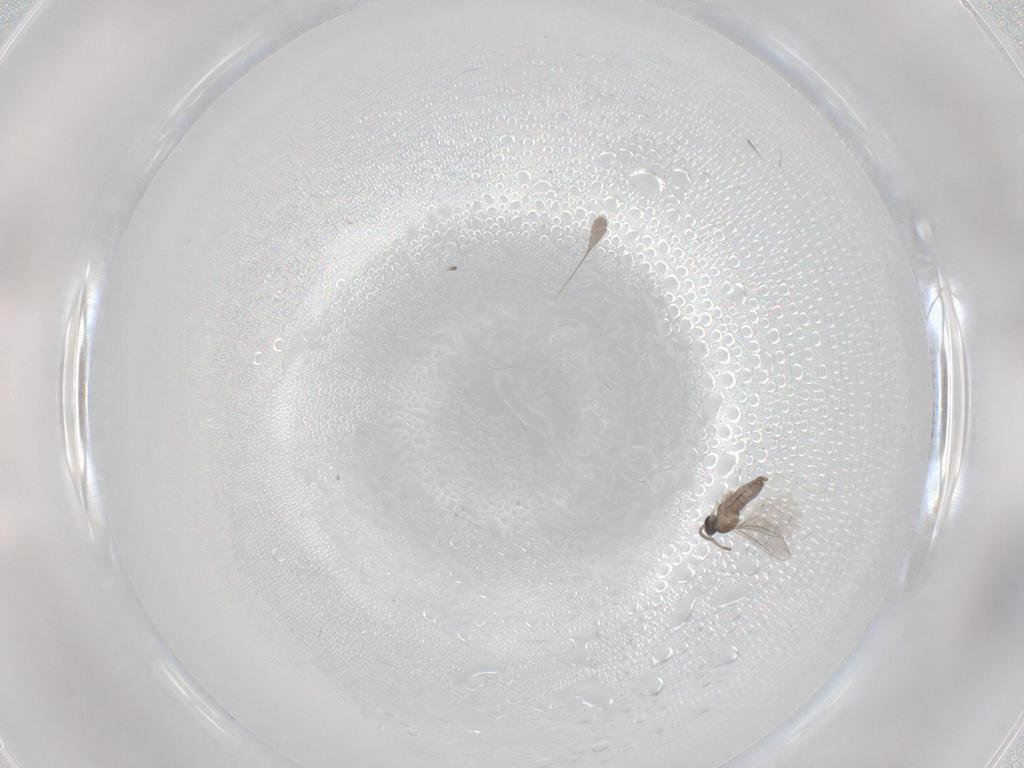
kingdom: Animalia
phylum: Arthropoda
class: Insecta
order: Diptera
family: Cecidomyiidae
